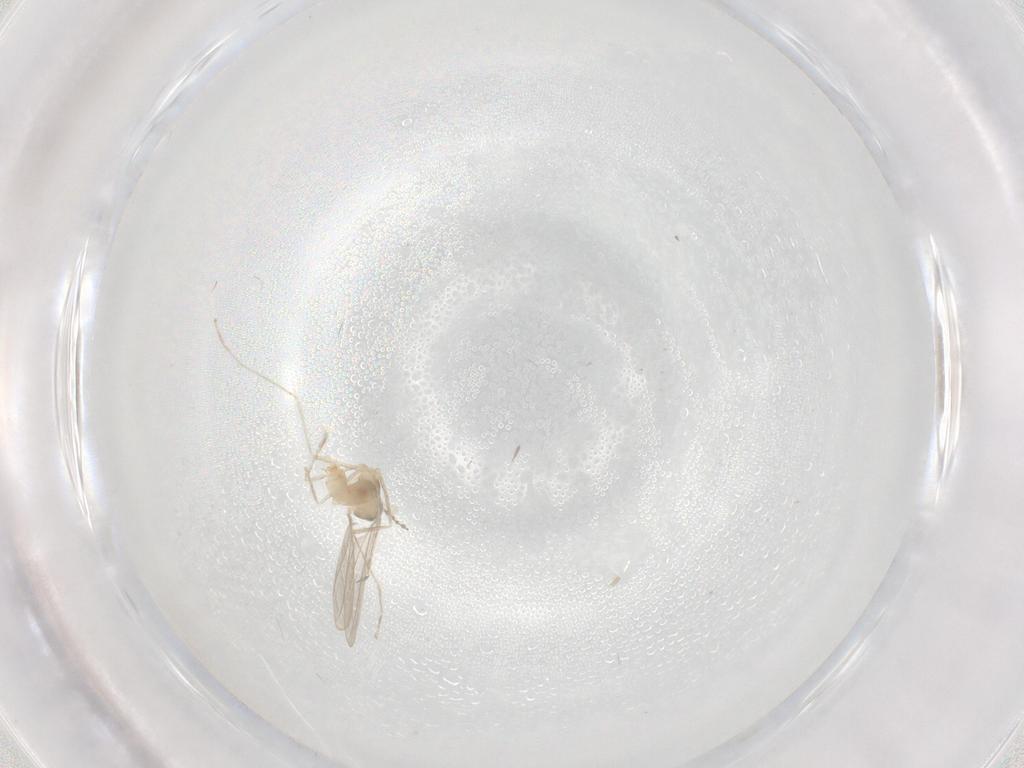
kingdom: Animalia
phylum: Arthropoda
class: Insecta
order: Diptera
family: Cecidomyiidae
